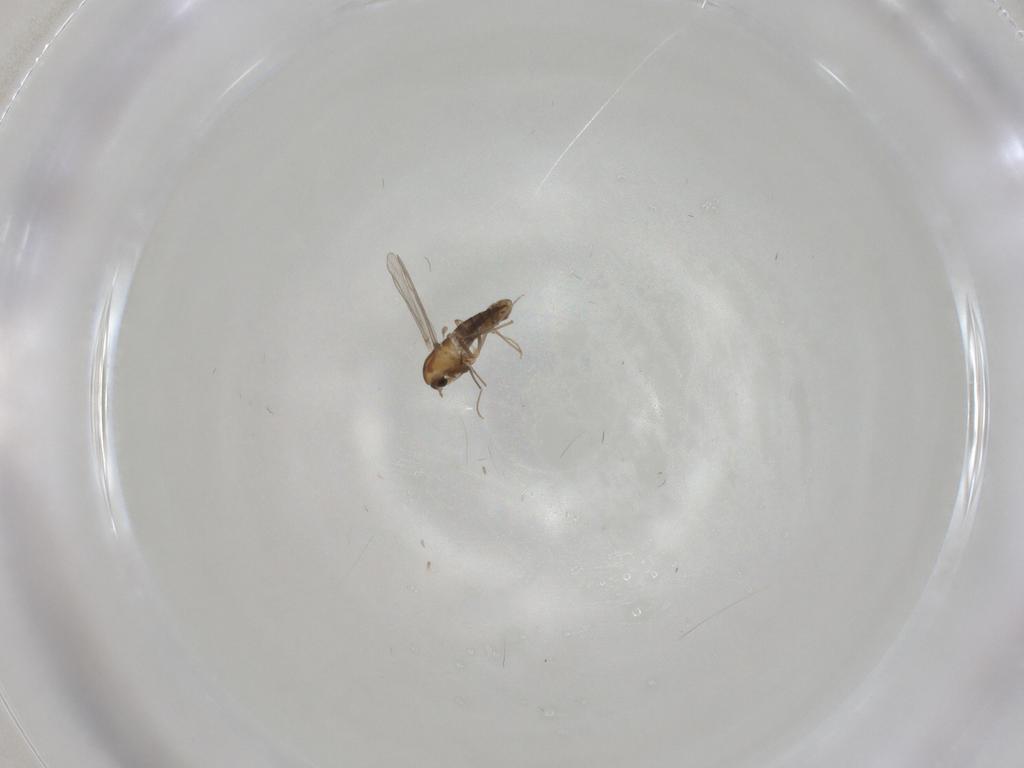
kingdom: Animalia
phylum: Arthropoda
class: Insecta
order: Diptera
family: Chironomidae
